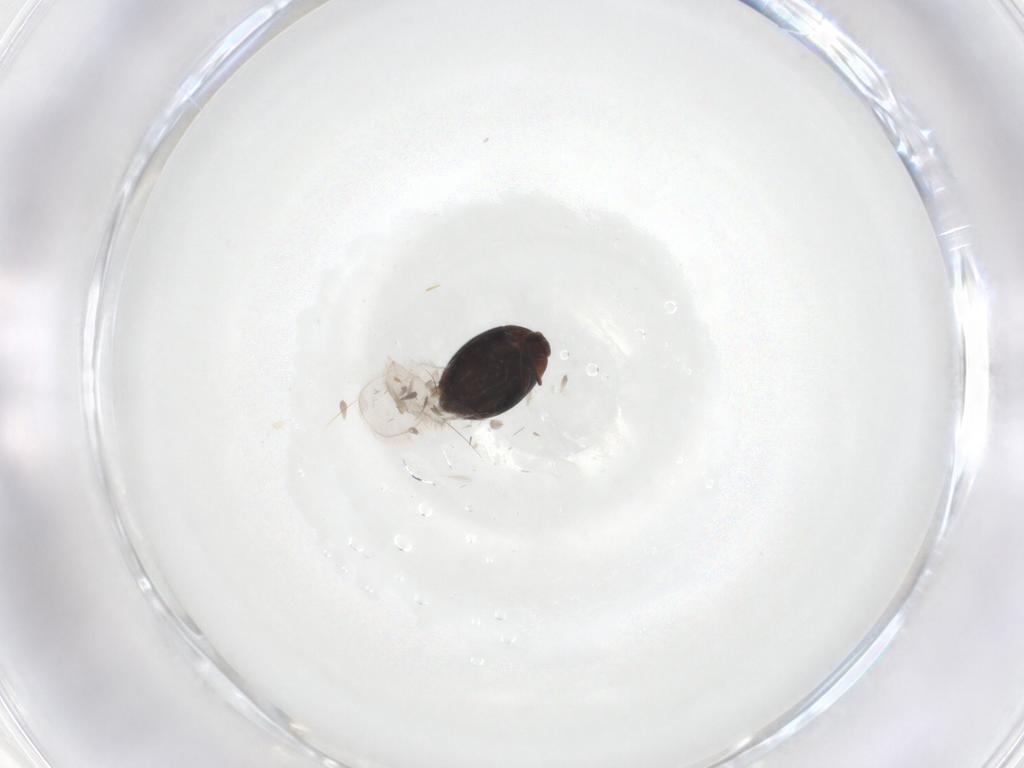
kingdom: Animalia
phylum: Arthropoda
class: Insecta
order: Coleoptera
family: Corylophidae
